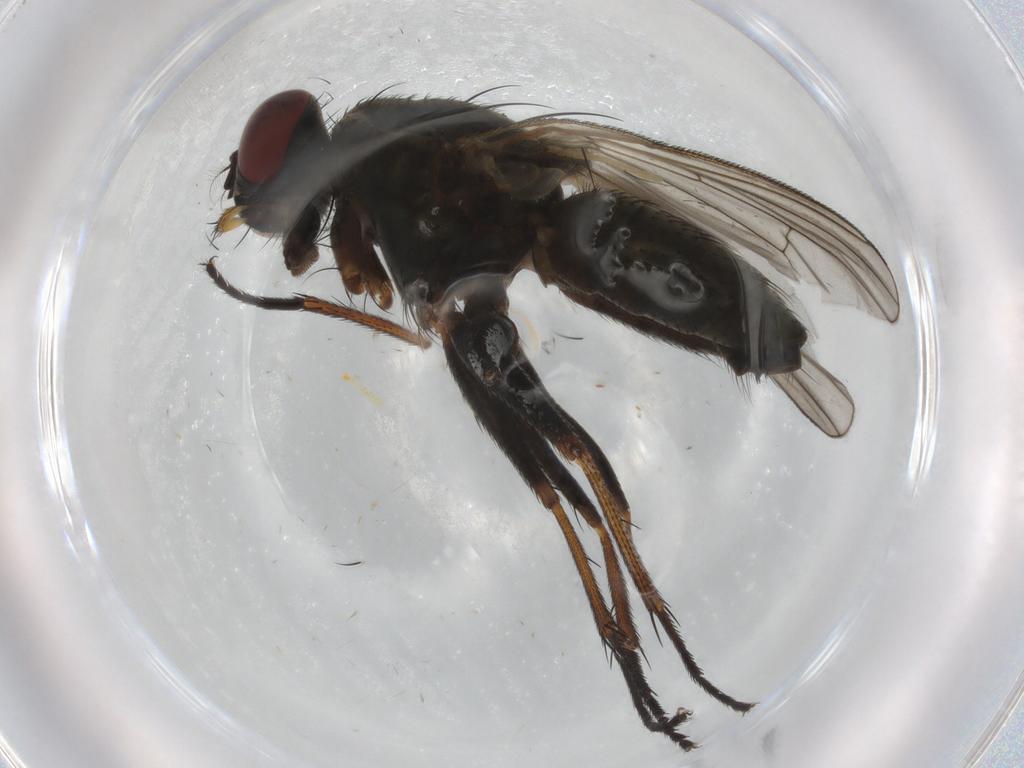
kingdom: Animalia
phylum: Arthropoda
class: Insecta
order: Diptera
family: Muscidae
